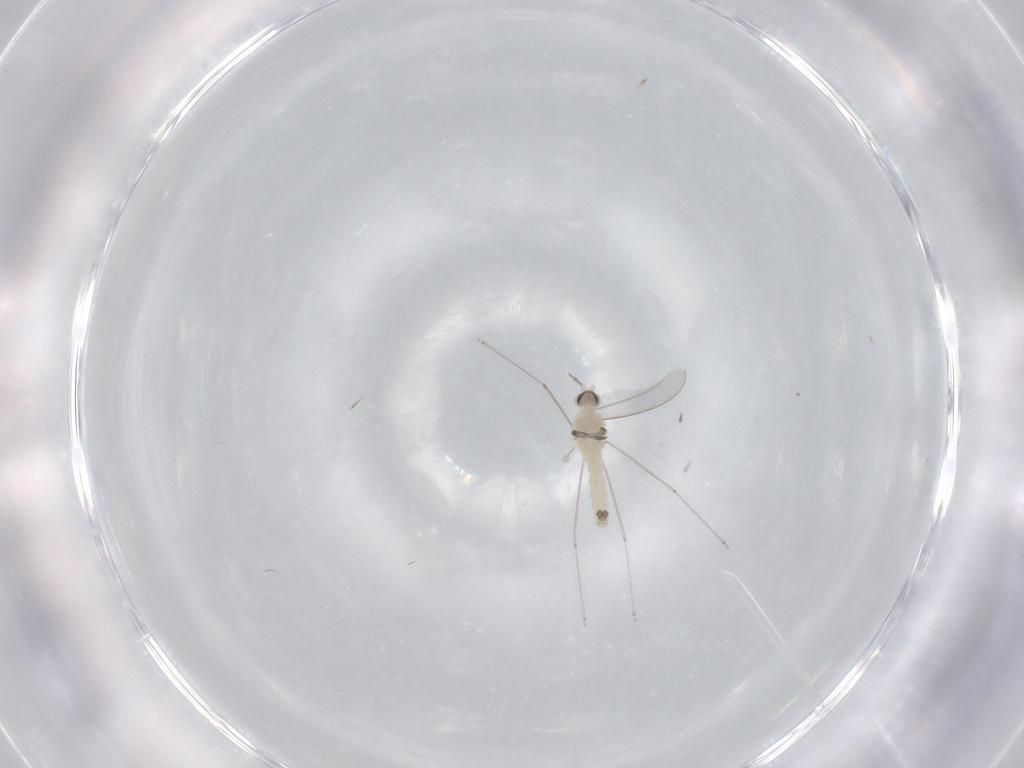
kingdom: Animalia
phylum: Arthropoda
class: Insecta
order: Diptera
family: Cecidomyiidae
